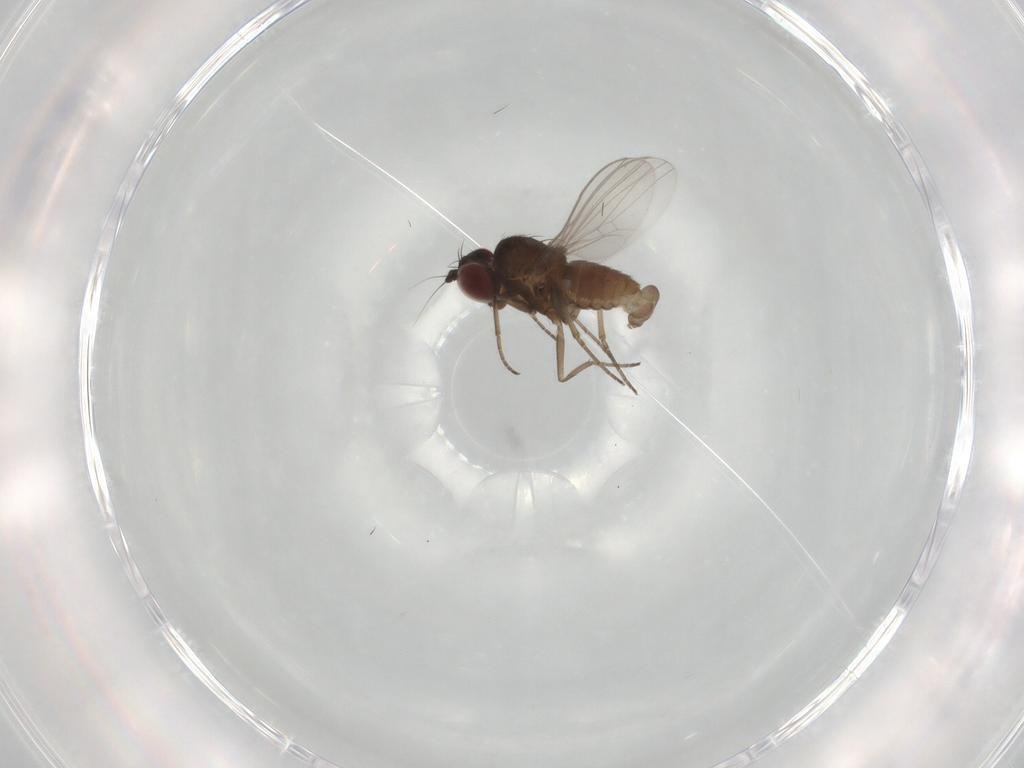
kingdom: Animalia
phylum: Arthropoda
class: Insecta
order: Diptera
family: Dolichopodidae
